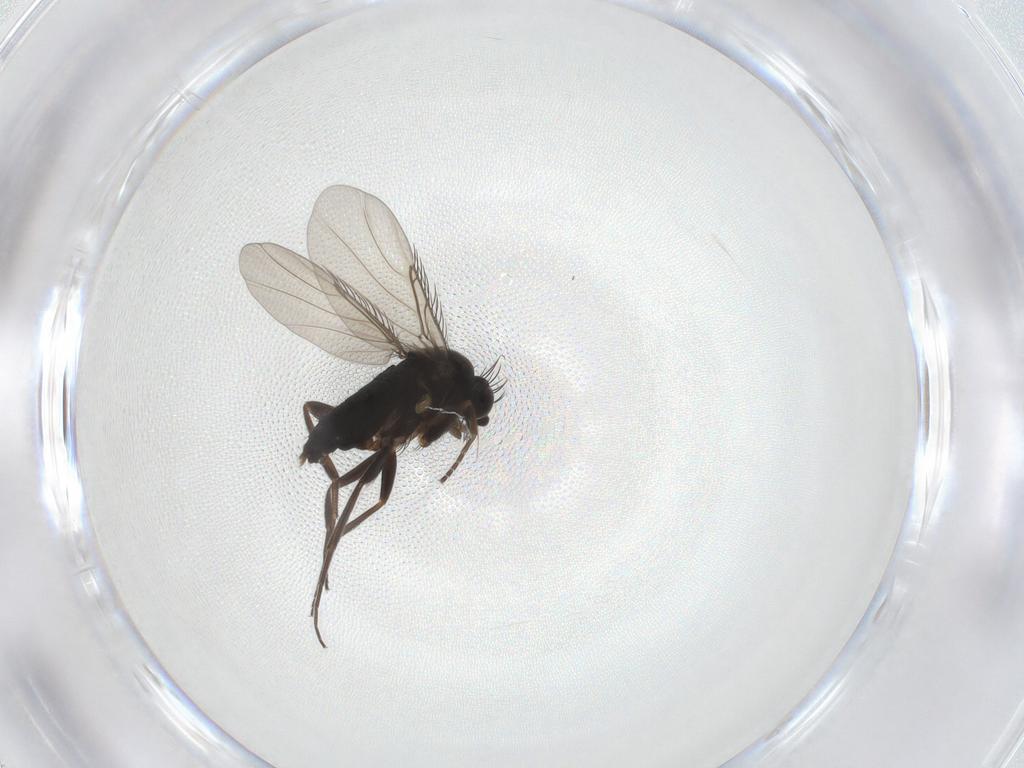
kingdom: Animalia
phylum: Arthropoda
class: Insecta
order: Diptera
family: Phoridae
